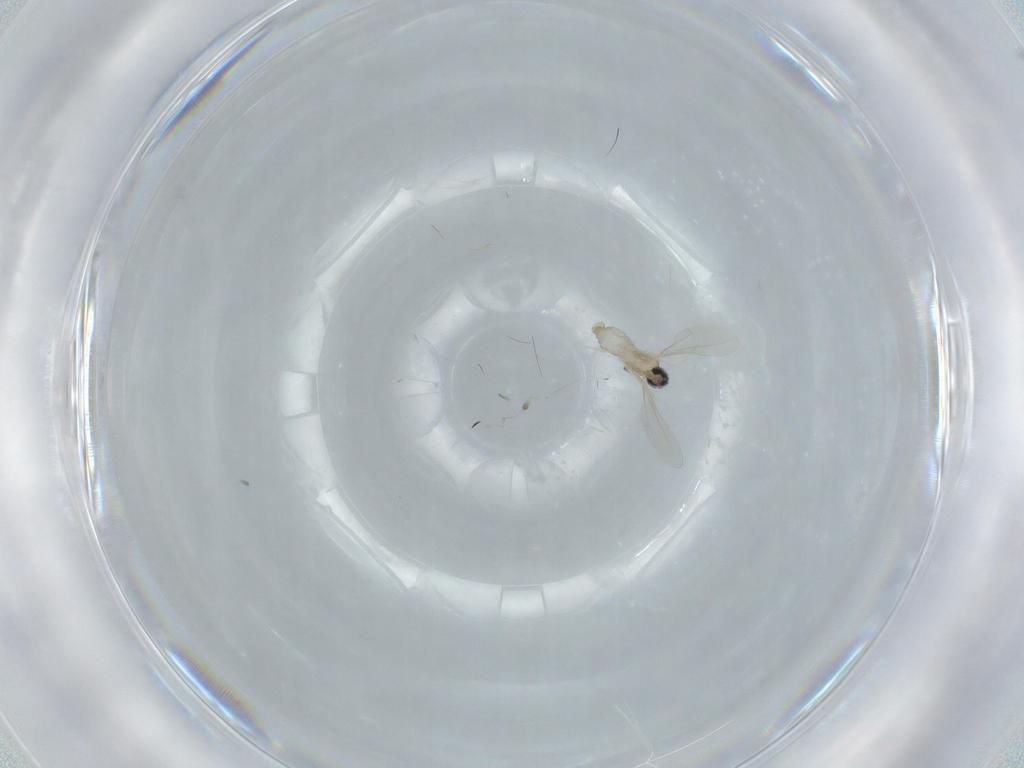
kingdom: Animalia
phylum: Arthropoda
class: Insecta
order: Diptera
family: Cecidomyiidae
